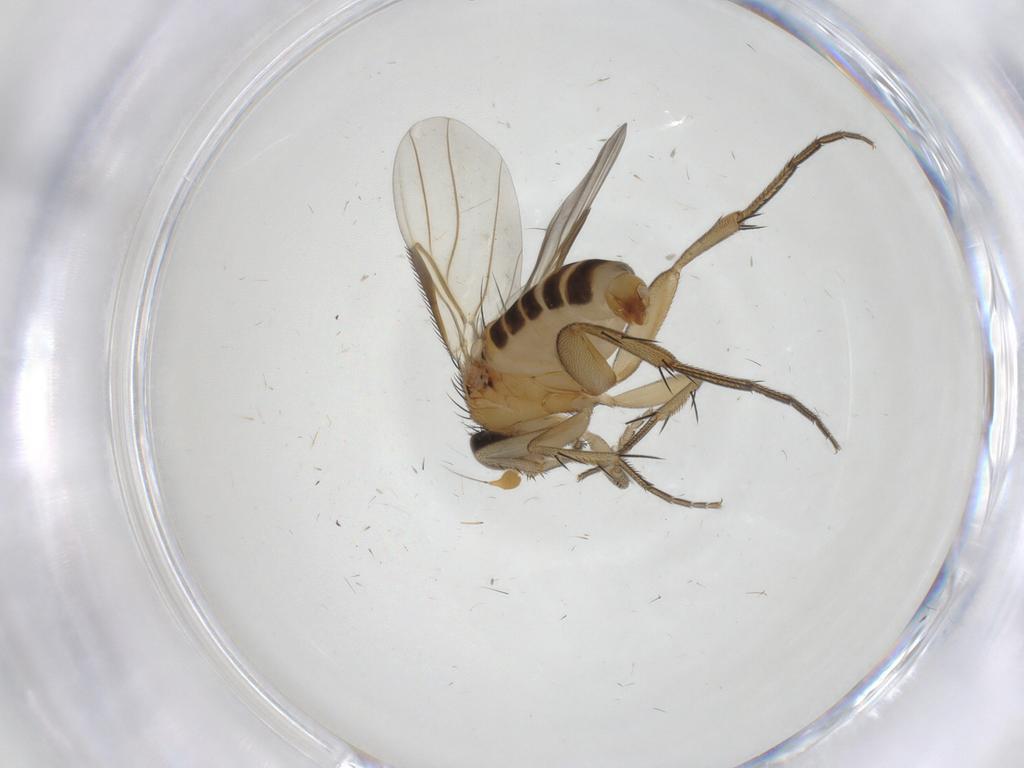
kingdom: Animalia
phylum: Arthropoda
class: Insecta
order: Diptera
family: Phoridae
